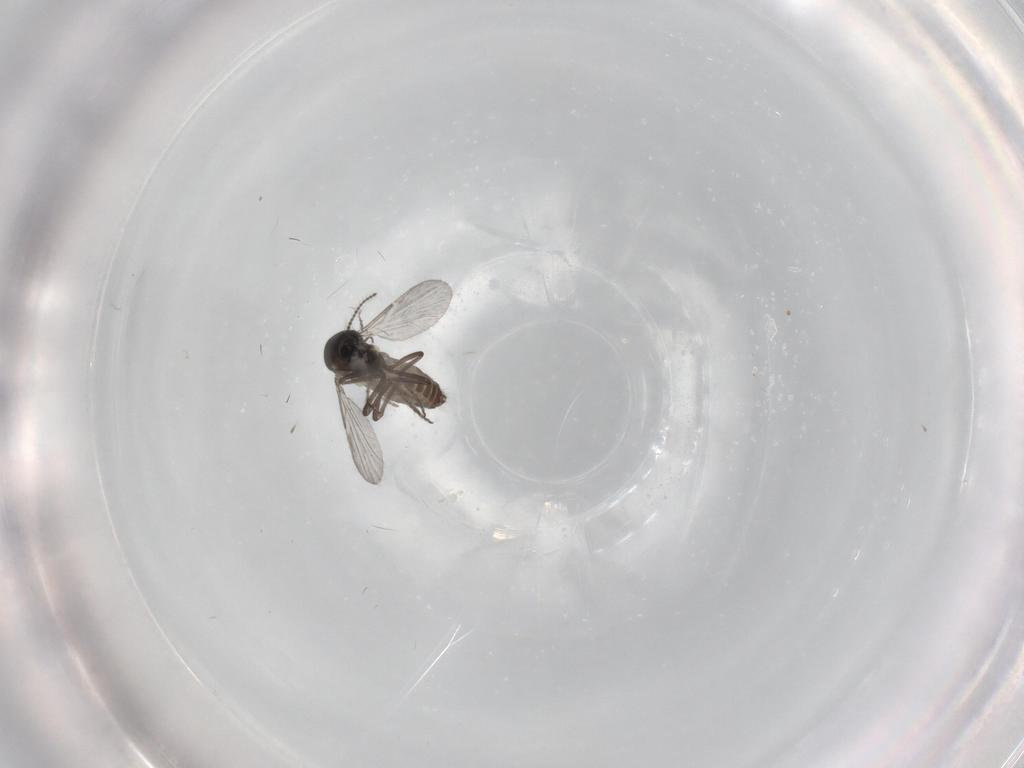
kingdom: Animalia
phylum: Arthropoda
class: Insecta
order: Diptera
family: Ceratopogonidae
